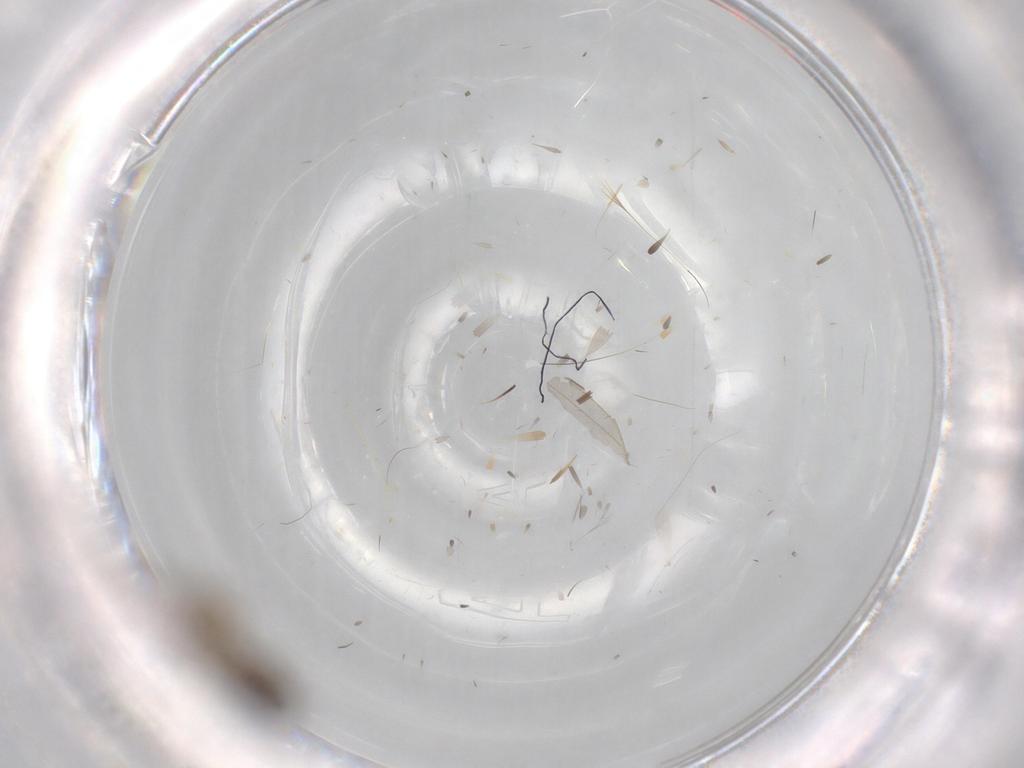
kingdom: Animalia
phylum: Arthropoda
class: Insecta
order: Diptera
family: Phoridae
